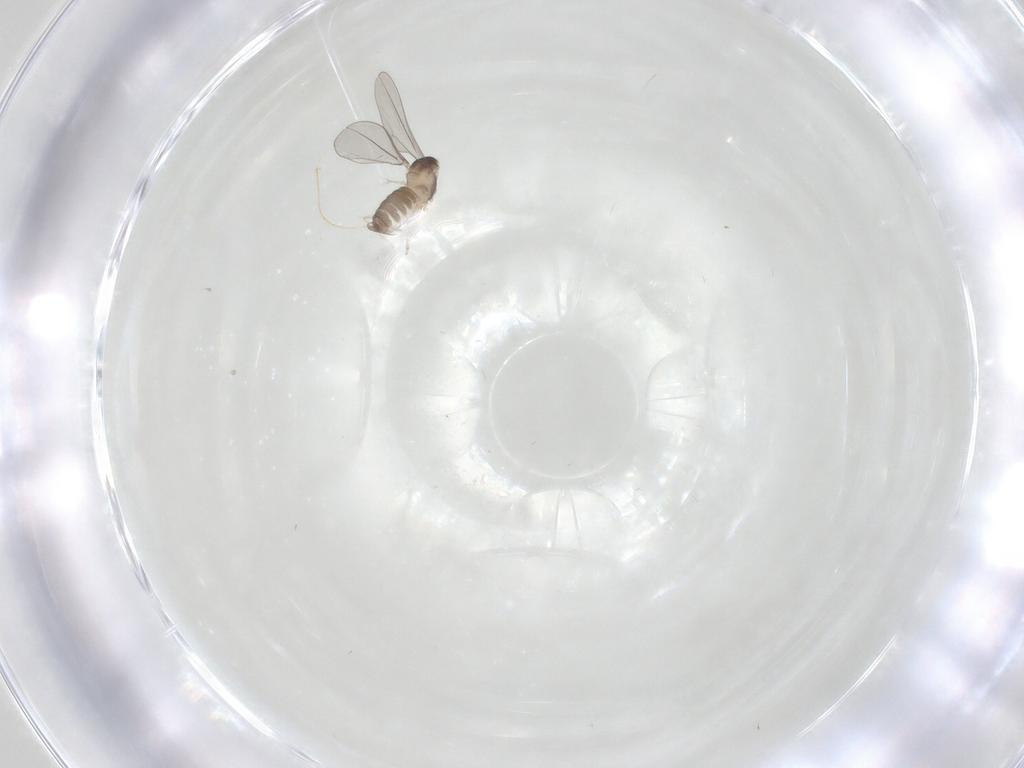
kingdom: Animalia
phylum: Arthropoda
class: Insecta
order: Diptera
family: Cecidomyiidae
